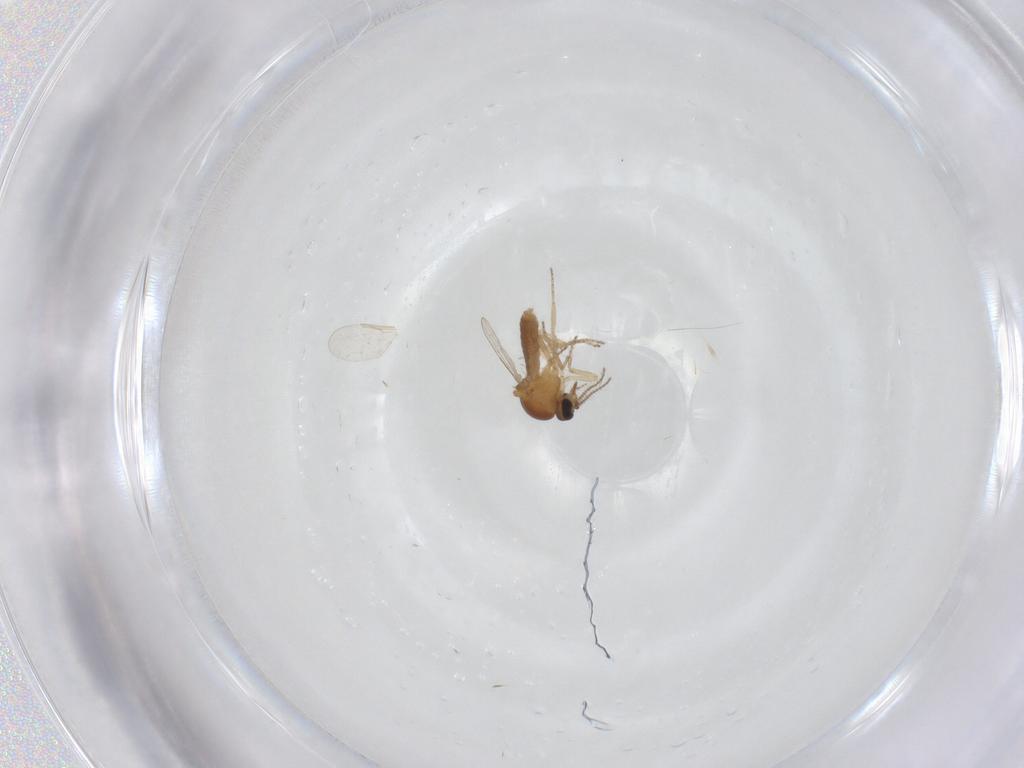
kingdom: Animalia
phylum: Arthropoda
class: Insecta
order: Diptera
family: Ceratopogonidae
